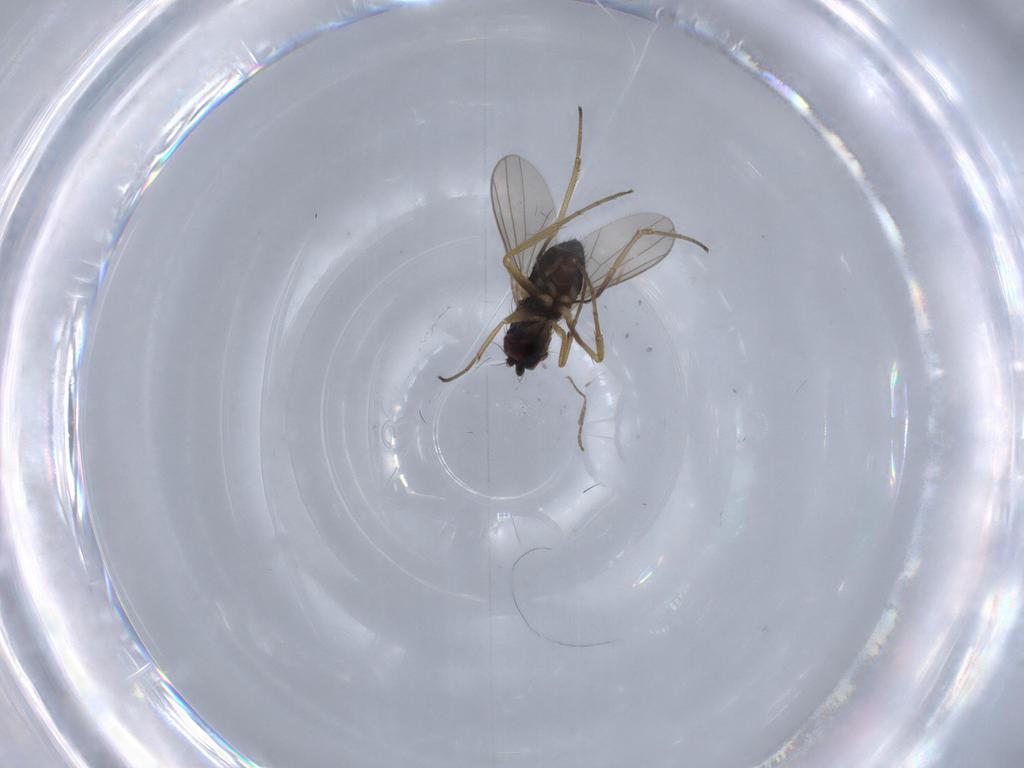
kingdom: Animalia
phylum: Arthropoda
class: Insecta
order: Diptera
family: Dolichopodidae
